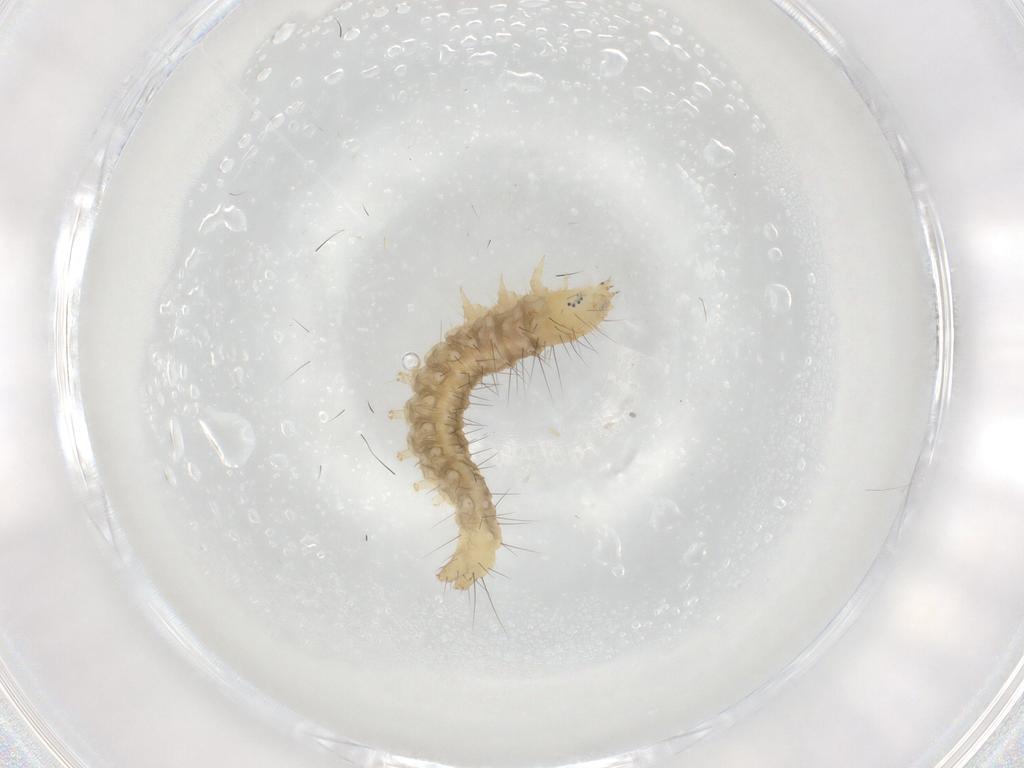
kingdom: Animalia
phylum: Arthropoda
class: Insecta
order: Lepidoptera
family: Gelechiidae
